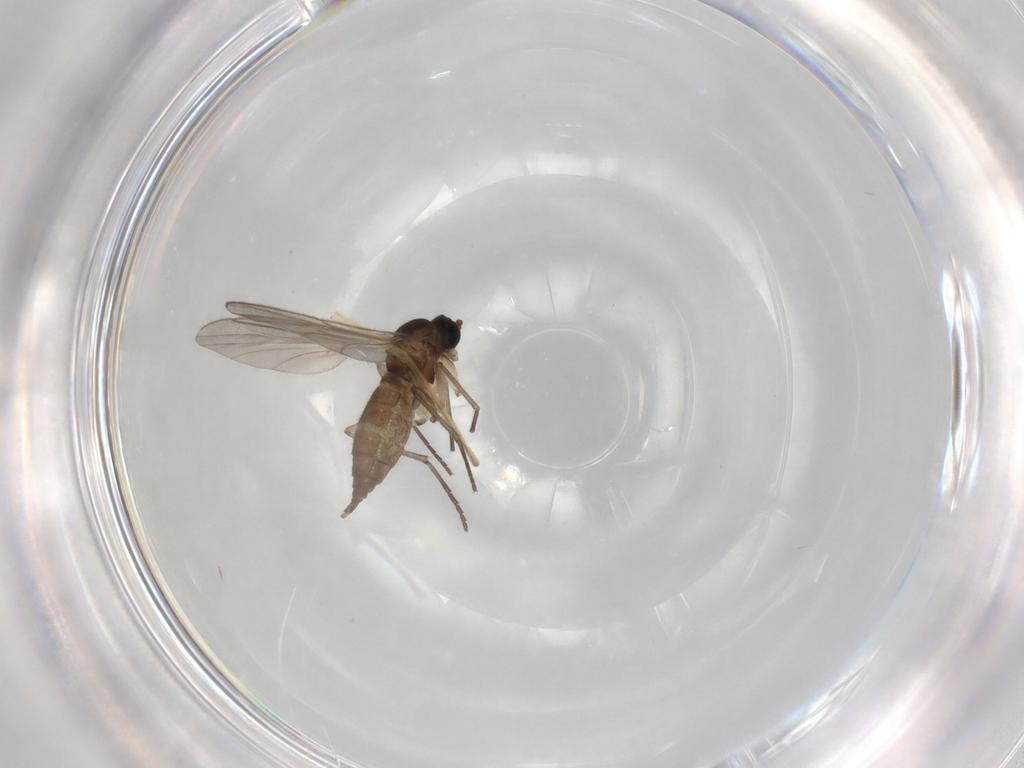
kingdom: Animalia
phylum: Arthropoda
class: Insecta
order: Diptera
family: Sciaridae
